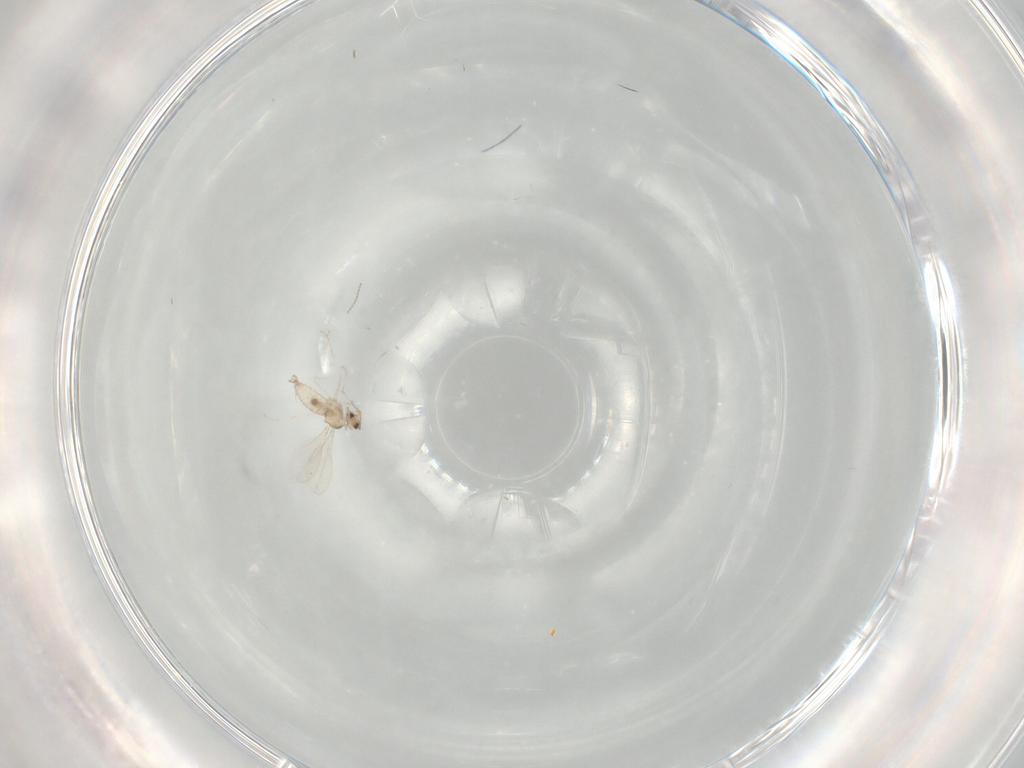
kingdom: Animalia
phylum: Arthropoda
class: Insecta
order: Diptera
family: Cecidomyiidae
